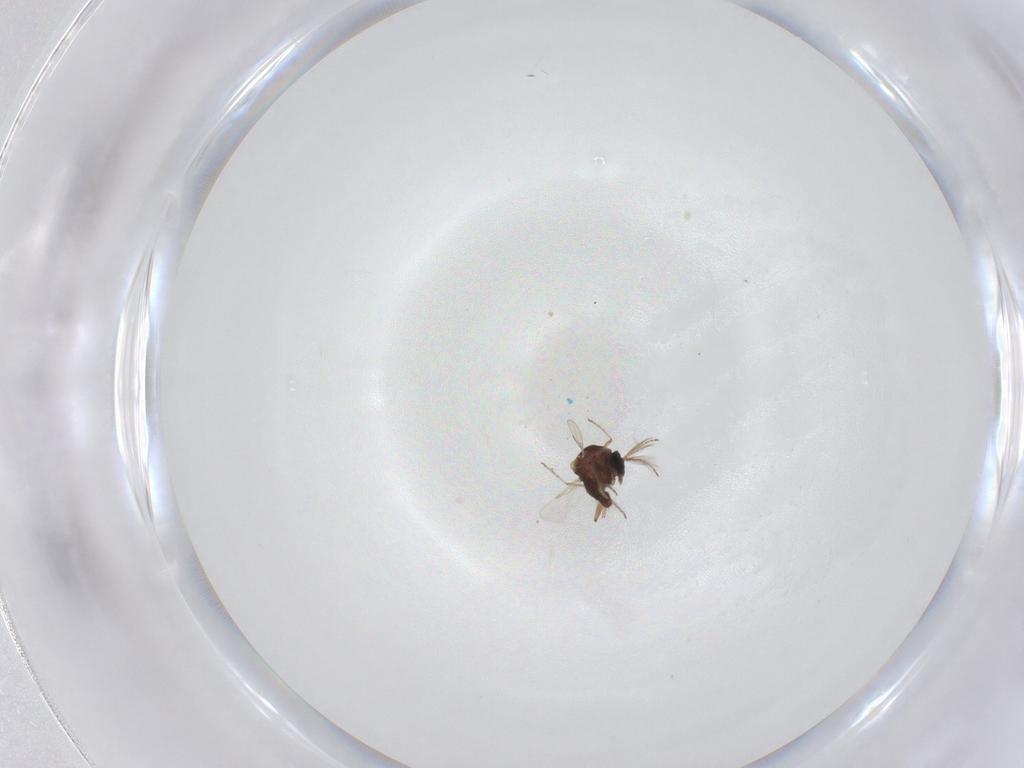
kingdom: Animalia
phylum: Arthropoda
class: Insecta
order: Diptera
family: Ceratopogonidae
